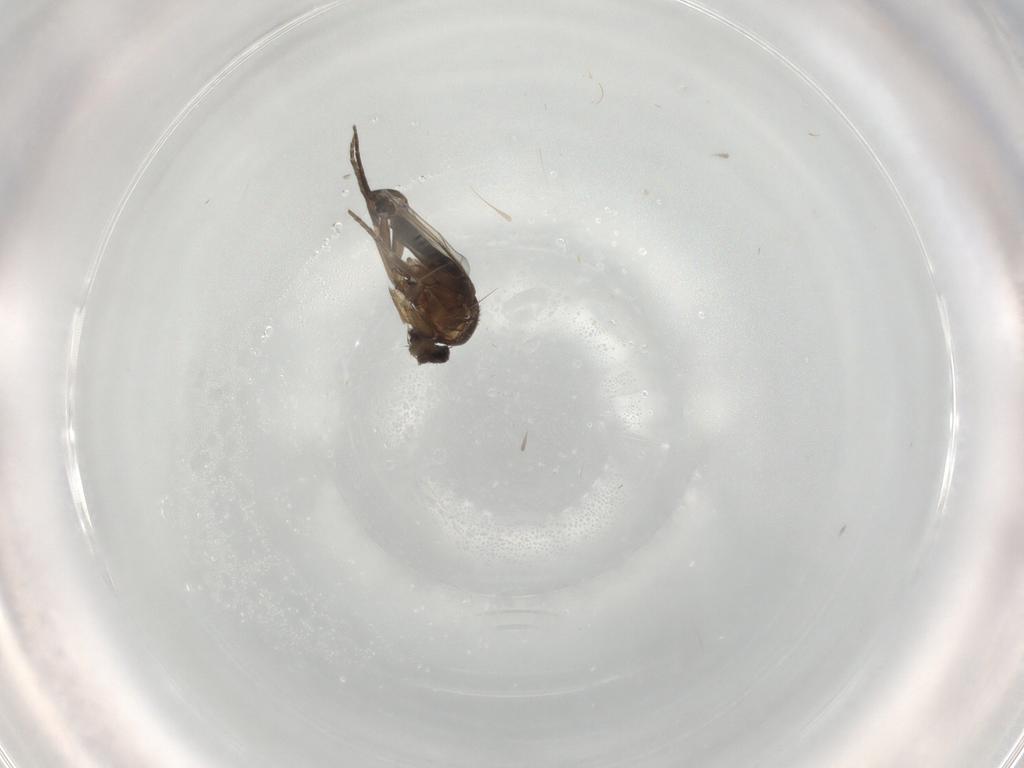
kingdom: Animalia
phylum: Arthropoda
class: Insecta
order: Diptera
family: Phoridae
